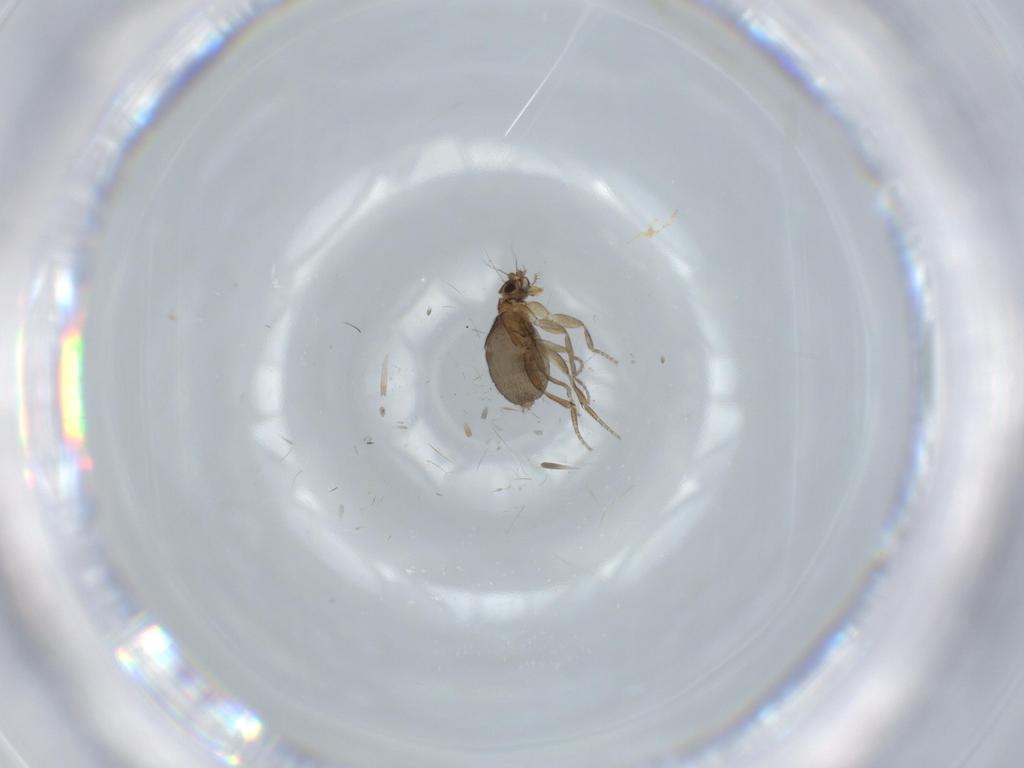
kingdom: Animalia
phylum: Arthropoda
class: Insecta
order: Diptera
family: Phoridae
